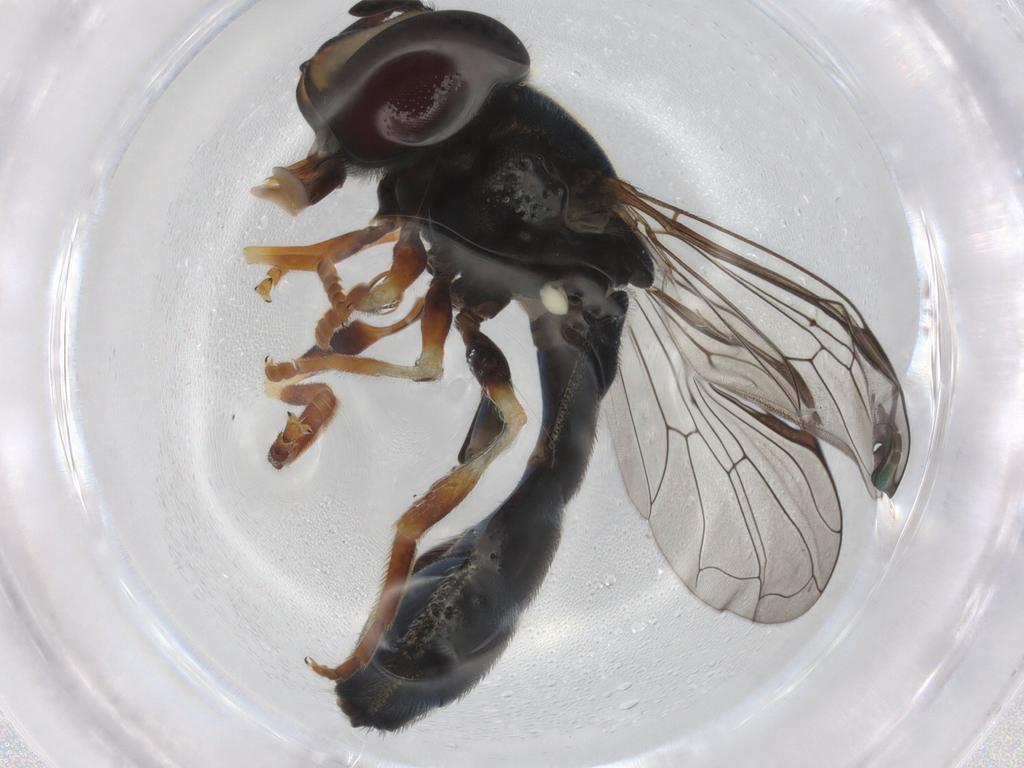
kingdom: Animalia
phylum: Arthropoda
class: Insecta
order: Diptera
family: Syrphidae
